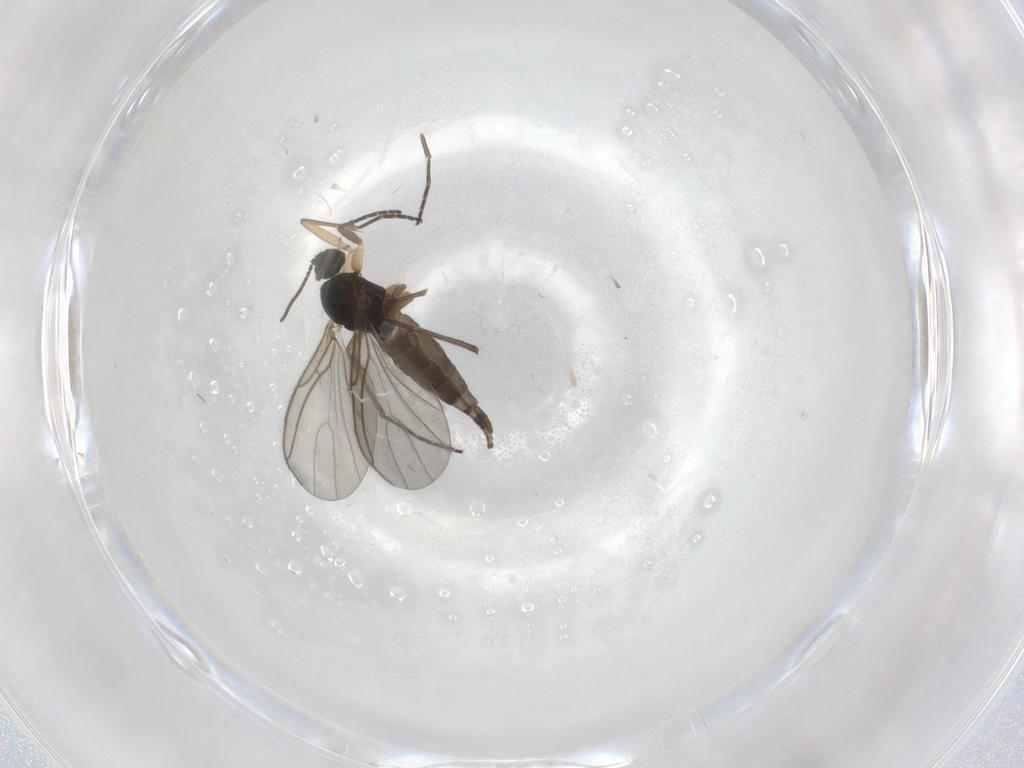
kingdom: Animalia
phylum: Arthropoda
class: Insecta
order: Diptera
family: Sciaridae
